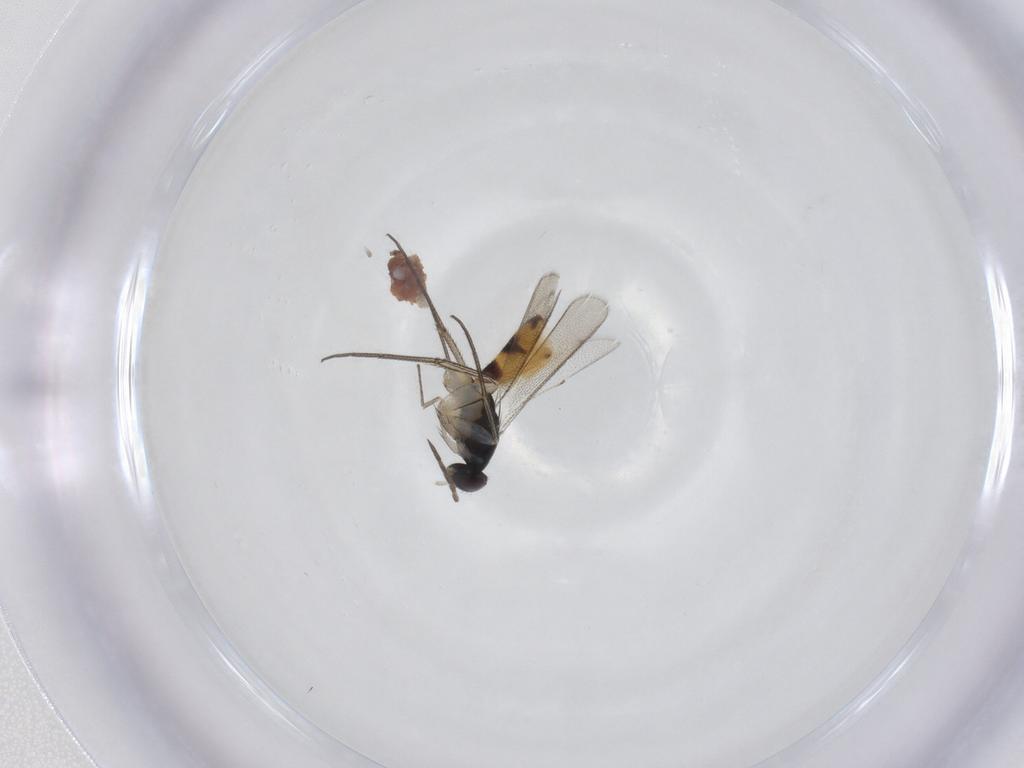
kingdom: Animalia
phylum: Arthropoda
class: Insecta
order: Hymenoptera
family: Eulophidae
